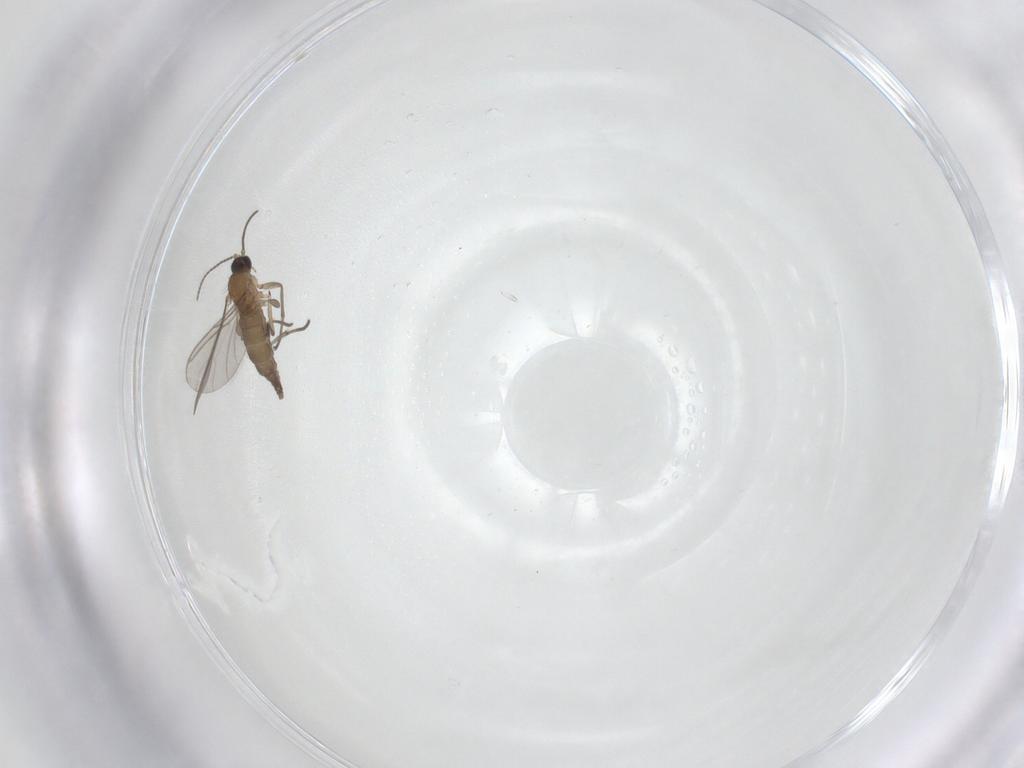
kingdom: Animalia
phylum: Arthropoda
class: Insecta
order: Diptera
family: Sciaridae
